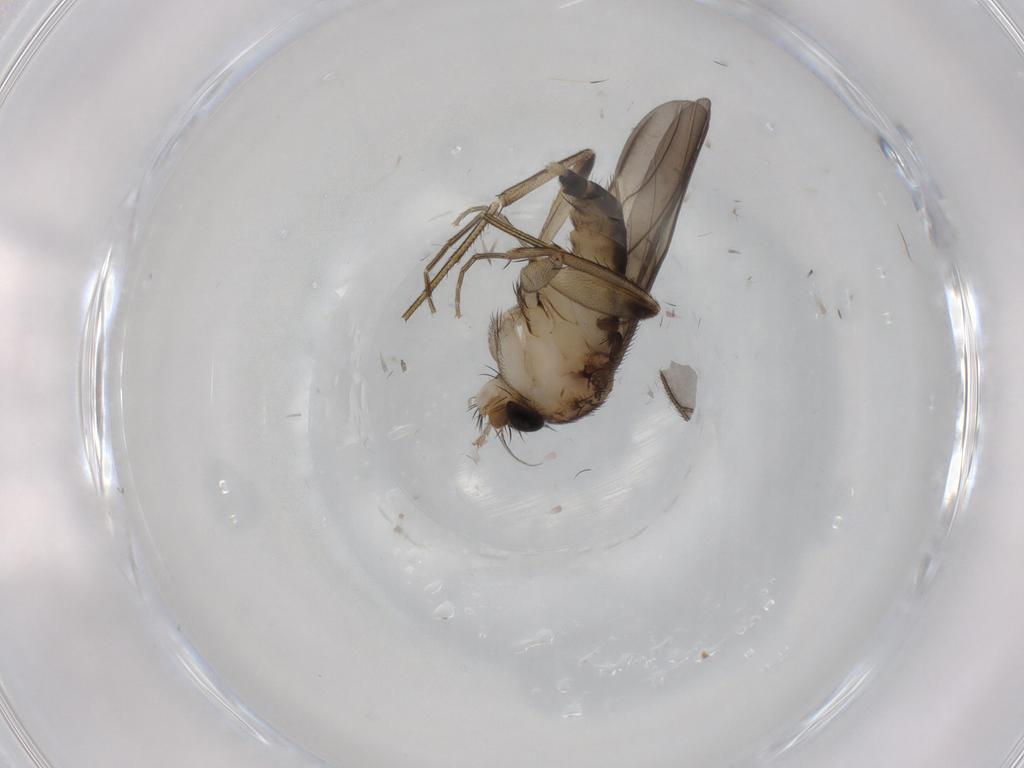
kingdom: Animalia
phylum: Arthropoda
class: Insecta
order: Diptera
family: Phoridae
